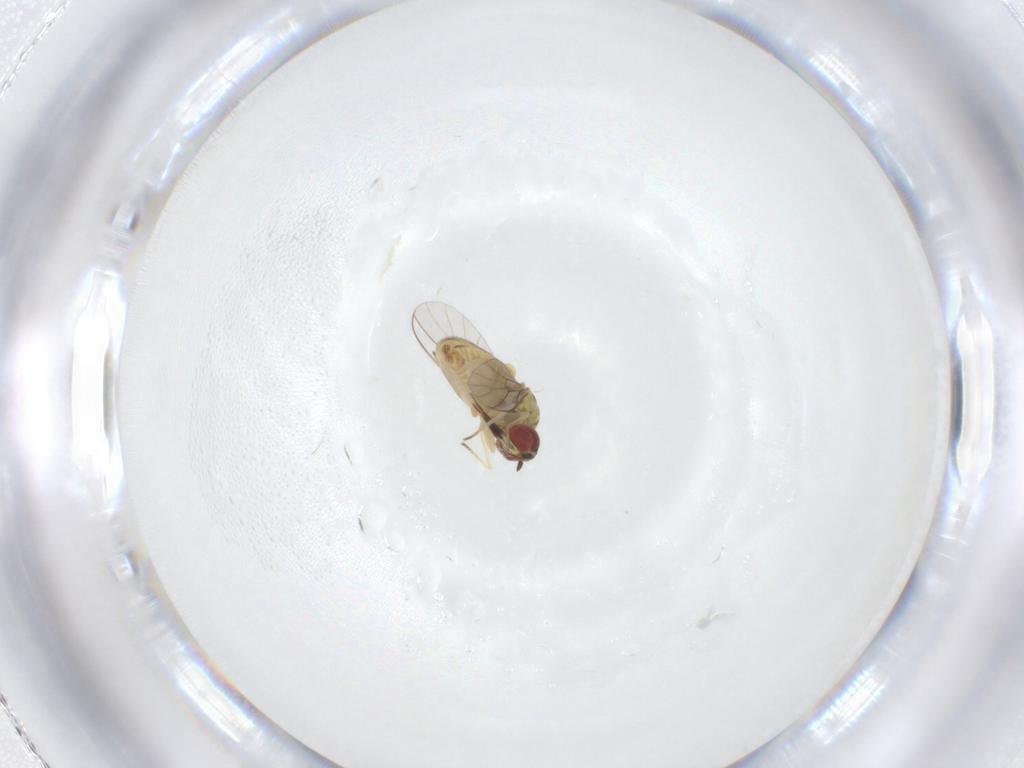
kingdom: Animalia
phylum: Arthropoda
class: Insecta
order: Diptera
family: Mythicomyiidae
